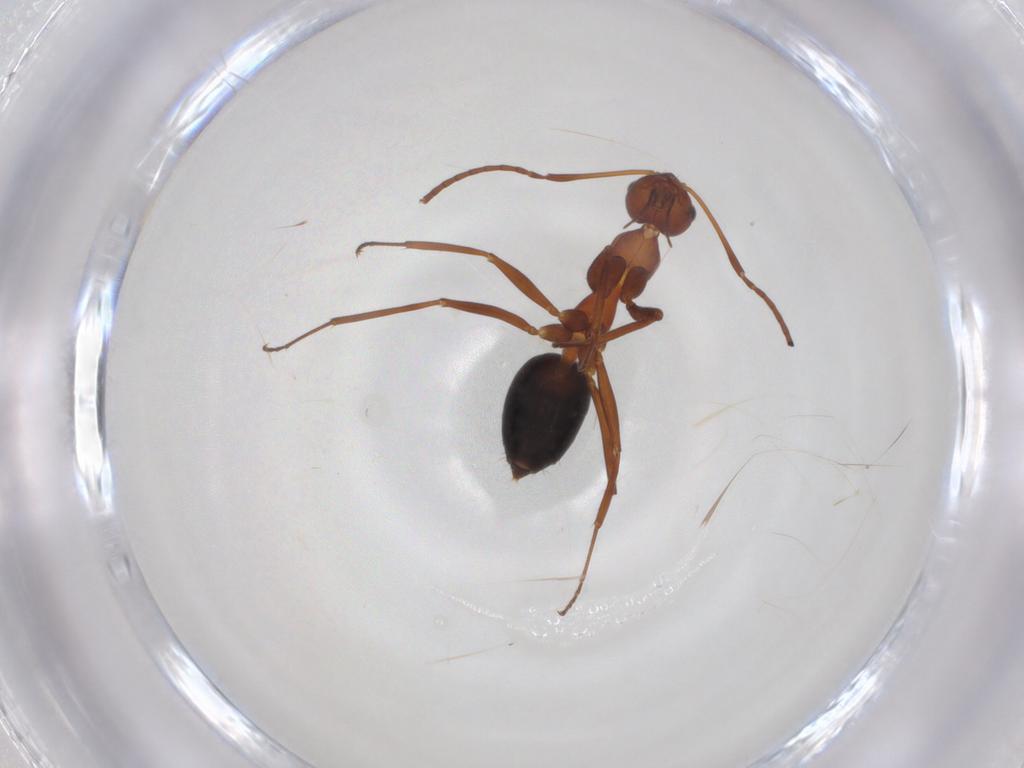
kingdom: Animalia
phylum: Arthropoda
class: Insecta
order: Hymenoptera
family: Formicidae
